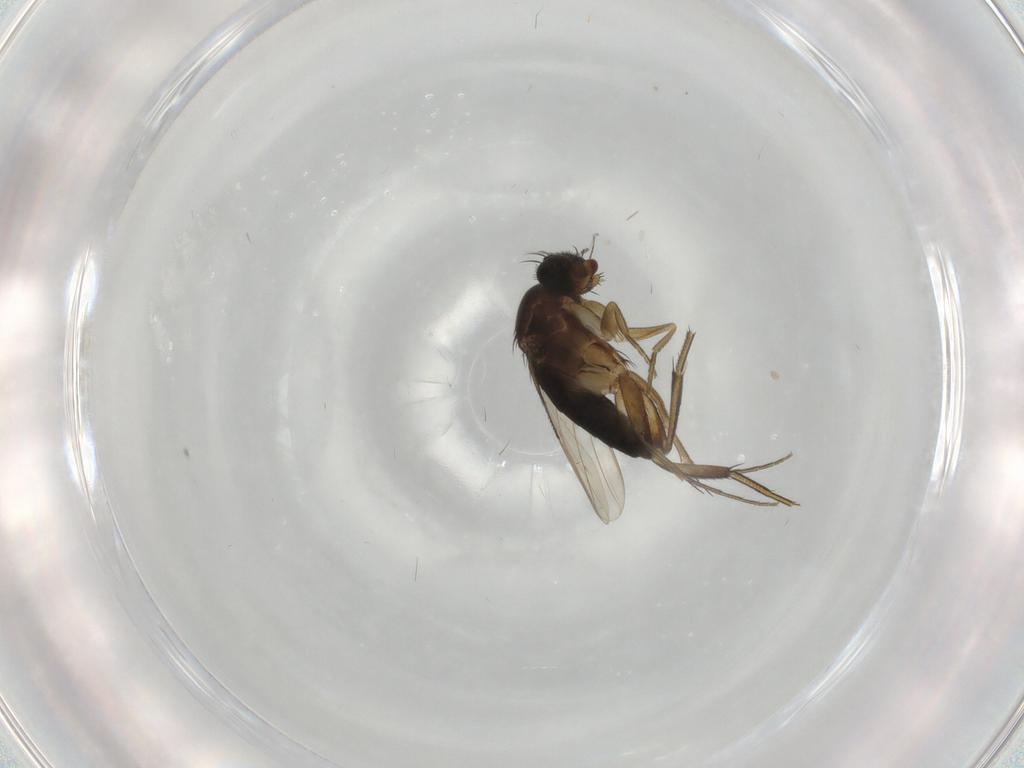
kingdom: Animalia
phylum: Arthropoda
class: Insecta
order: Diptera
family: Phoridae
